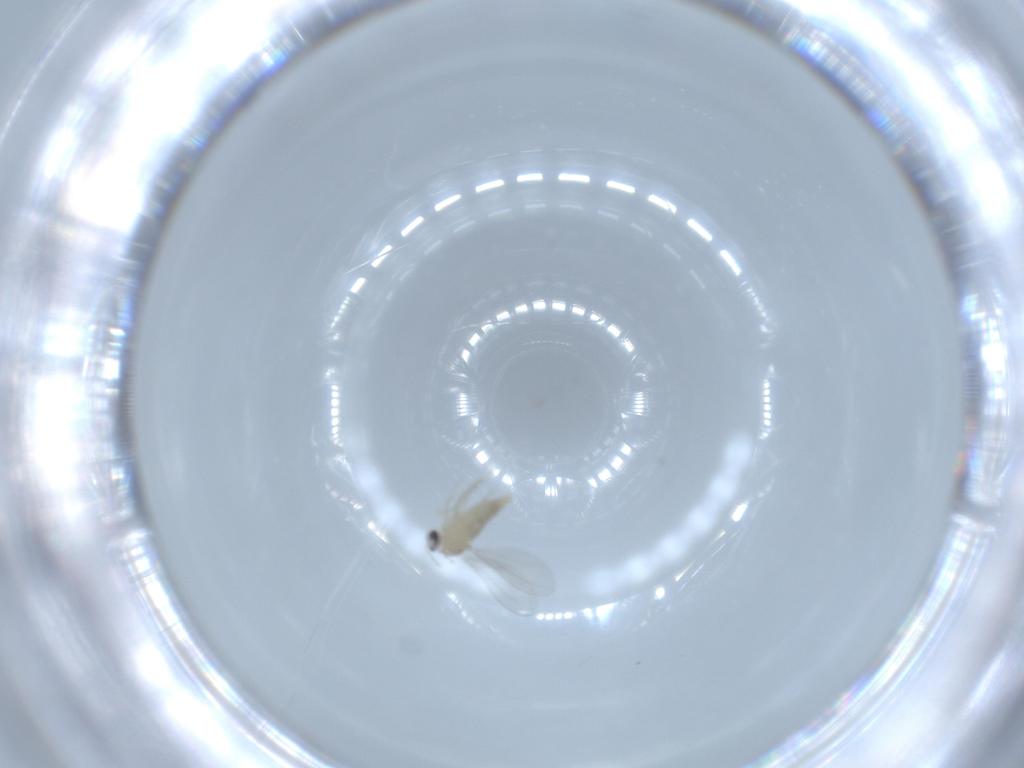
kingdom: Animalia
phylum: Arthropoda
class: Insecta
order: Diptera
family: Cecidomyiidae
